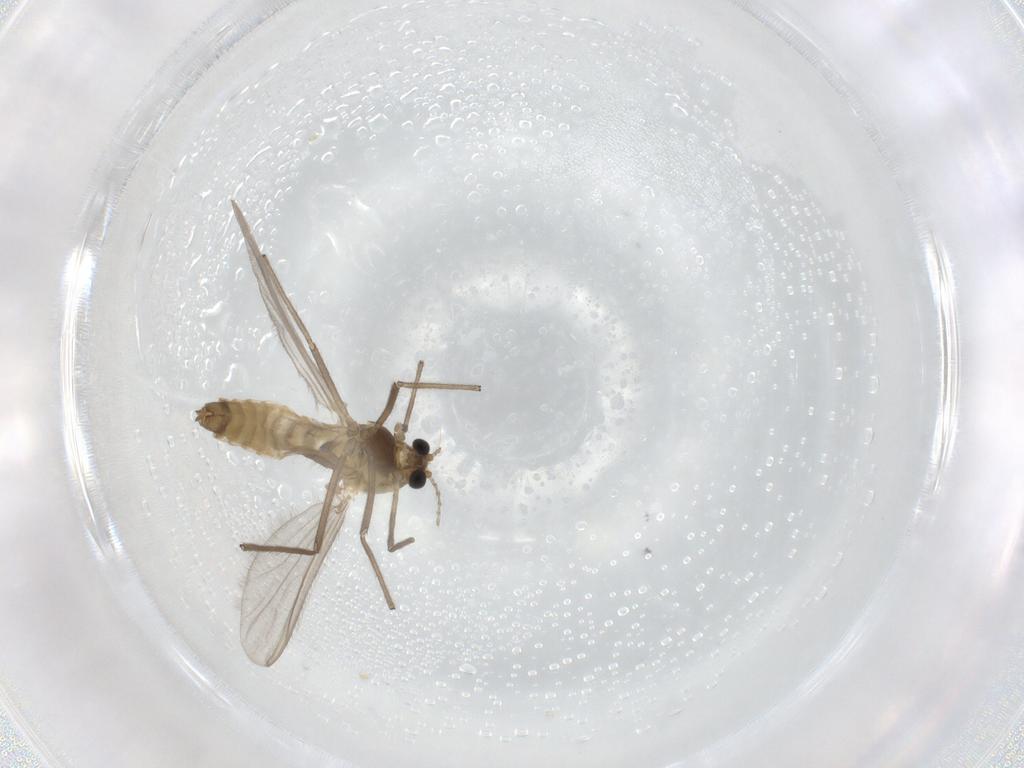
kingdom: Animalia
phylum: Arthropoda
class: Insecta
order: Diptera
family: Chironomidae
